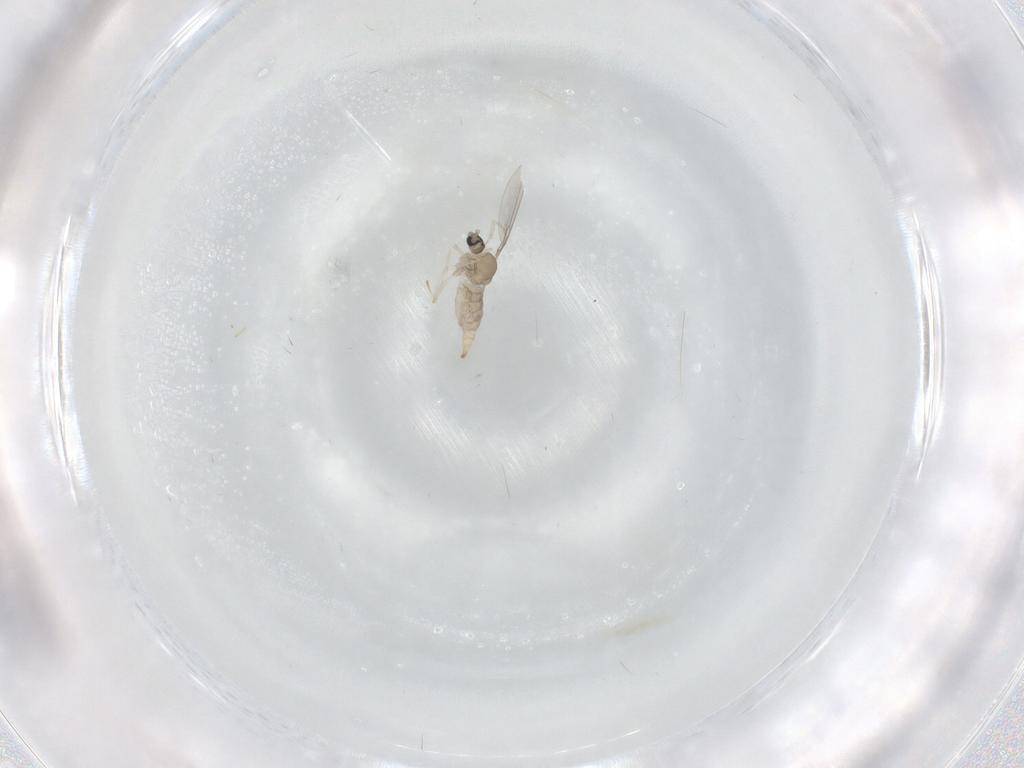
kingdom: Animalia
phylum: Arthropoda
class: Insecta
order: Diptera
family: Cecidomyiidae
